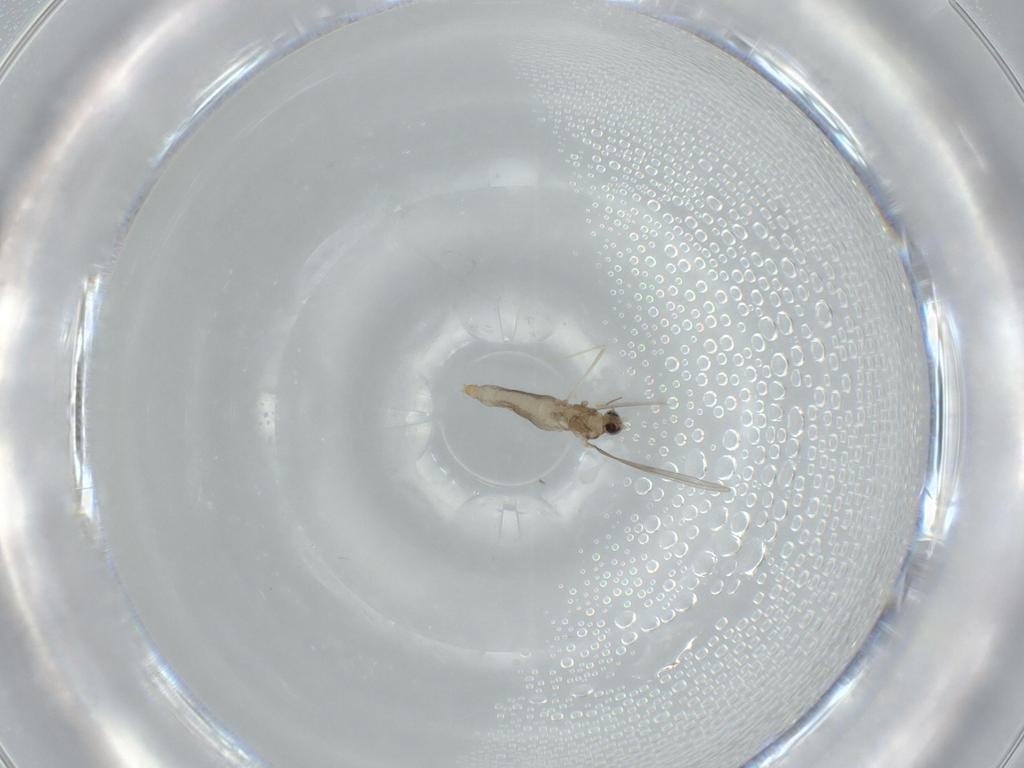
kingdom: Animalia
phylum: Arthropoda
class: Insecta
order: Diptera
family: Cecidomyiidae
